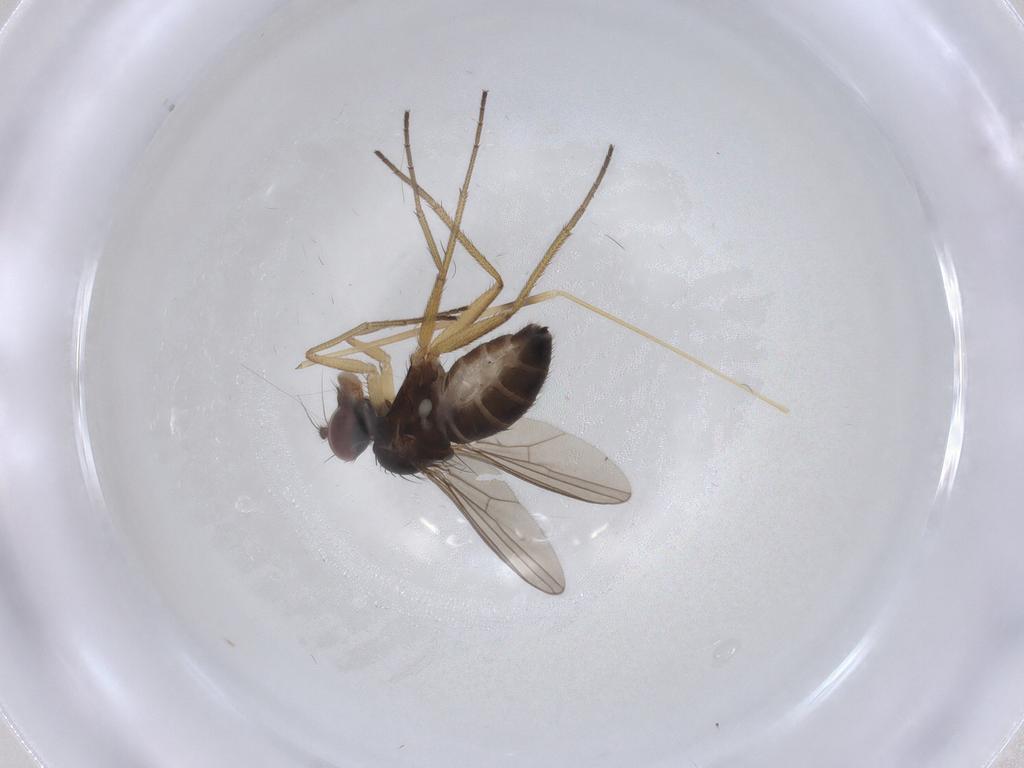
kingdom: Animalia
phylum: Arthropoda
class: Insecta
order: Diptera
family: Dolichopodidae
